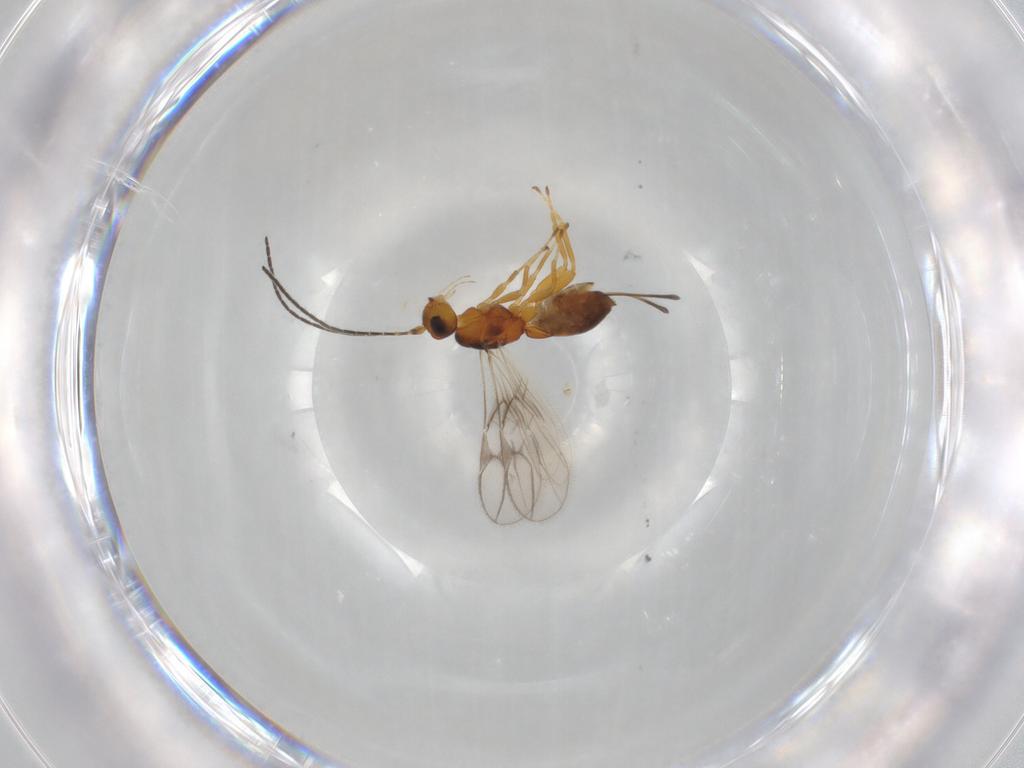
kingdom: Animalia
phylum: Arthropoda
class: Insecta
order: Hymenoptera
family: Braconidae
